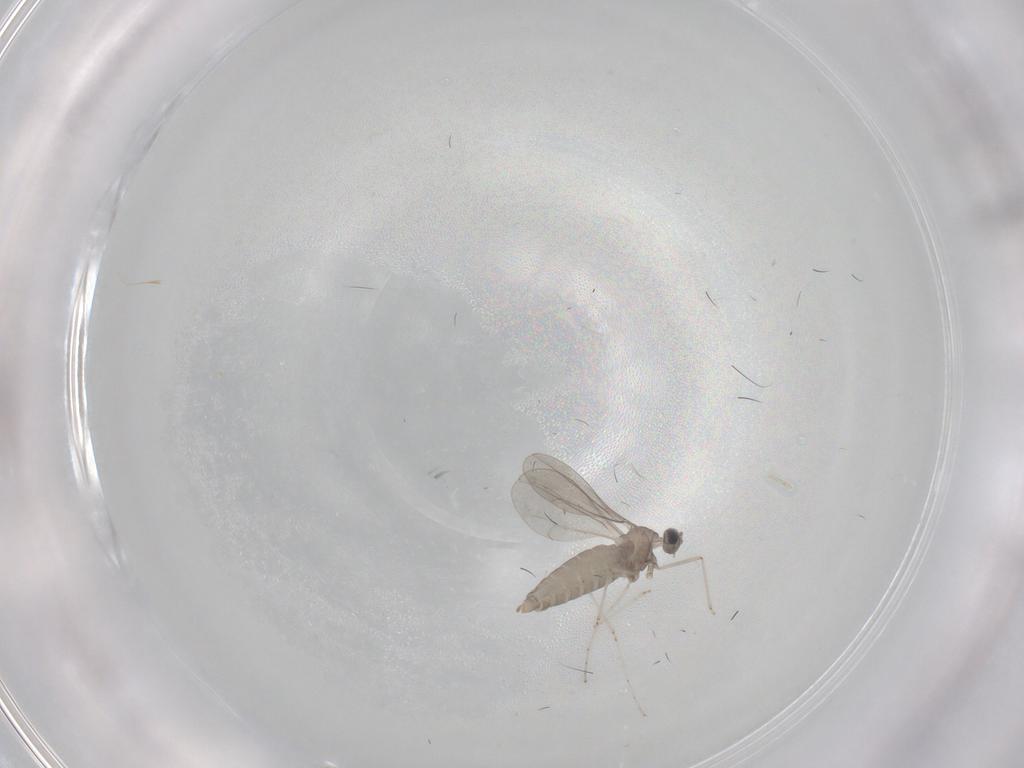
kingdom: Animalia
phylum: Arthropoda
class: Insecta
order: Diptera
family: Cecidomyiidae
